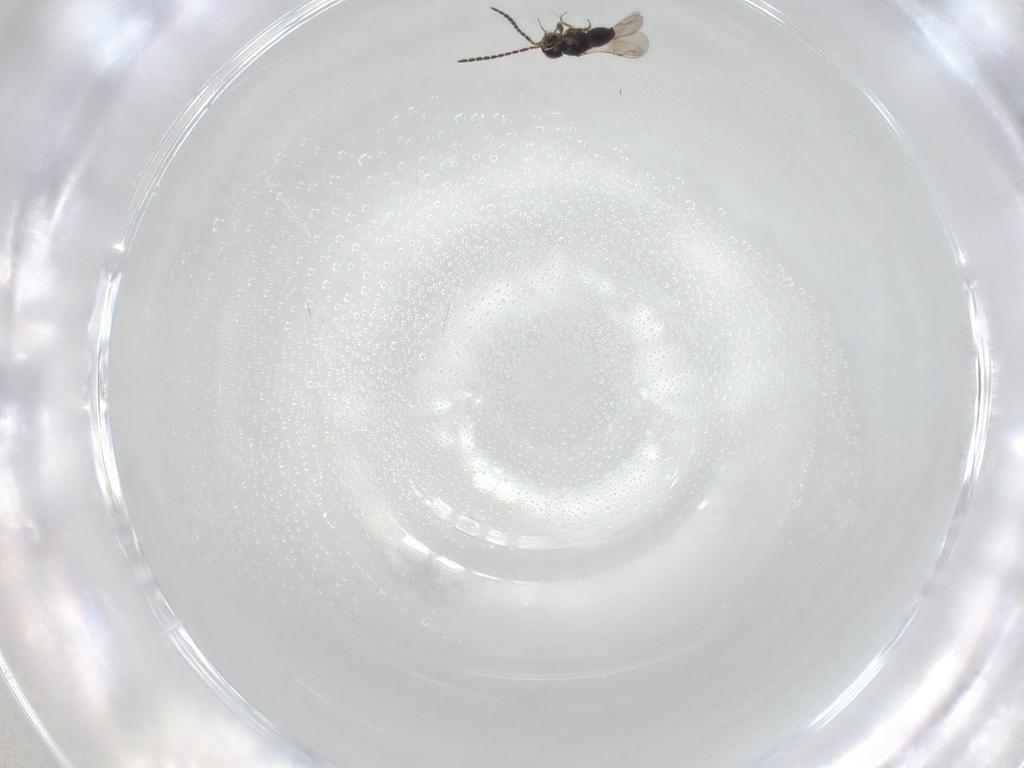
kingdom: Animalia
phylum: Arthropoda
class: Insecta
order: Hymenoptera
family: Ceraphronidae
